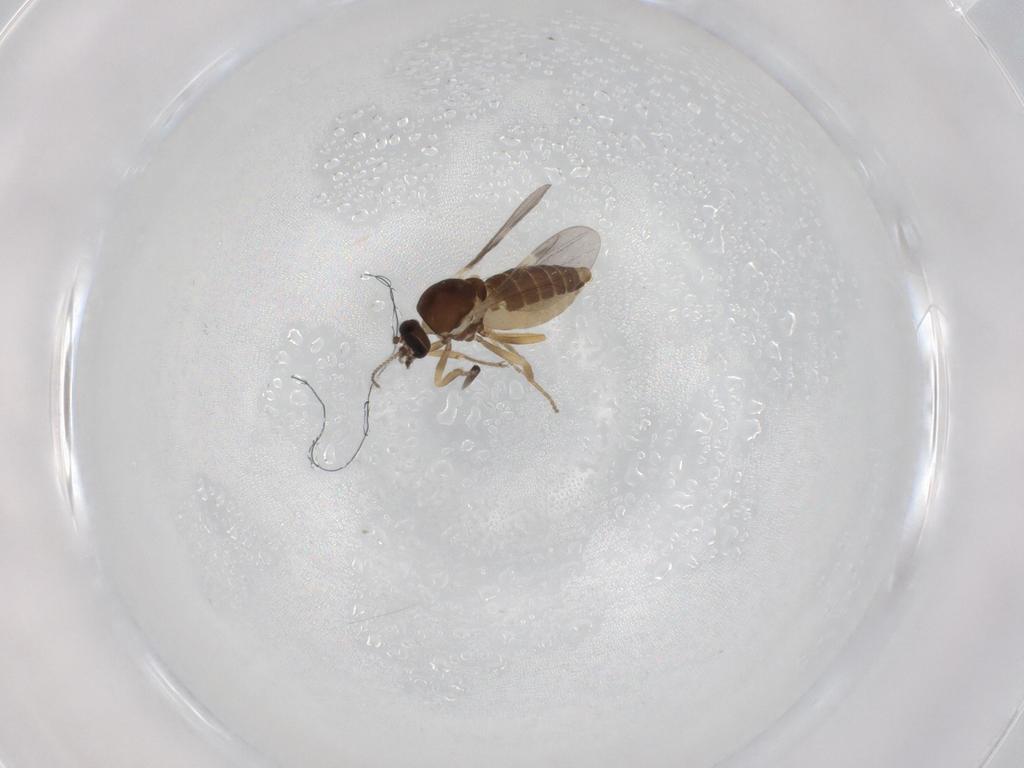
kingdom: Animalia
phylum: Arthropoda
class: Insecta
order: Diptera
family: Ceratopogonidae
